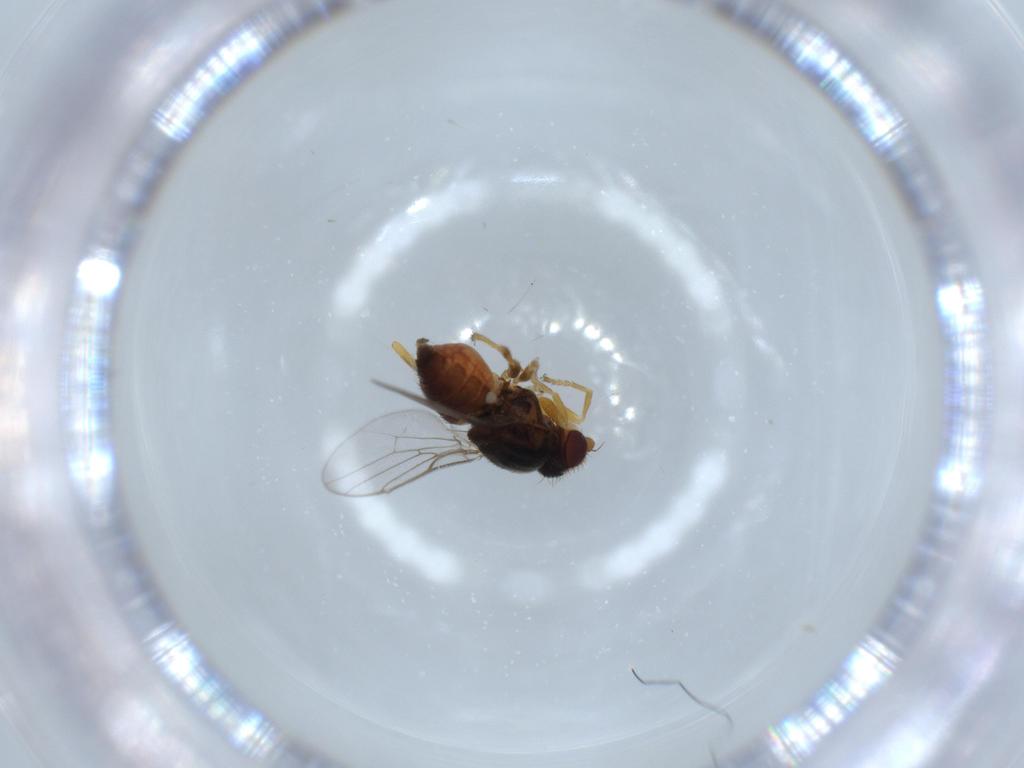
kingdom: Animalia
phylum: Arthropoda
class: Insecta
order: Diptera
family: Chloropidae
